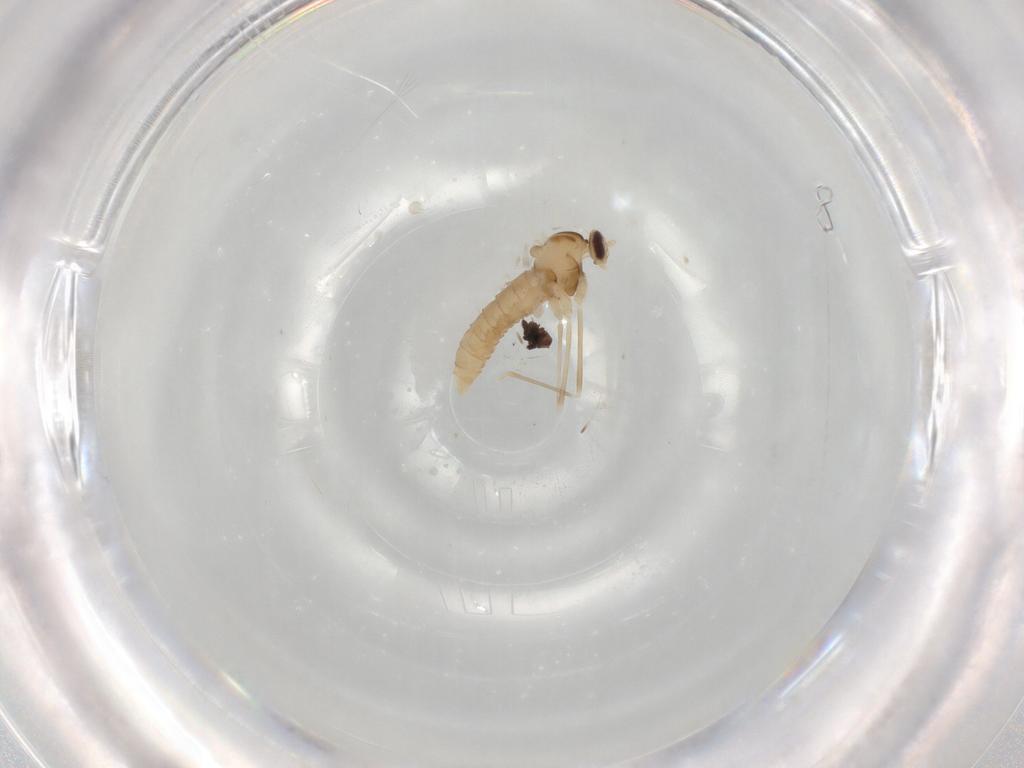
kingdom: Animalia
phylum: Arthropoda
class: Insecta
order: Diptera
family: Cecidomyiidae
